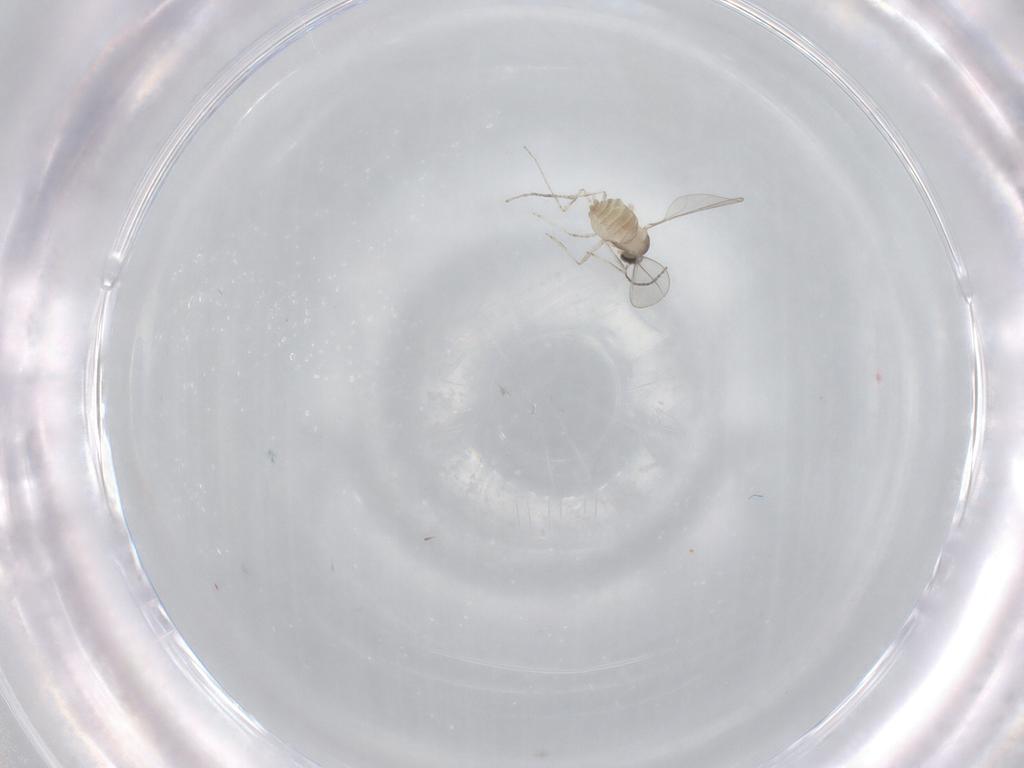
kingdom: Animalia
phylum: Arthropoda
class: Insecta
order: Diptera
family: Cecidomyiidae
